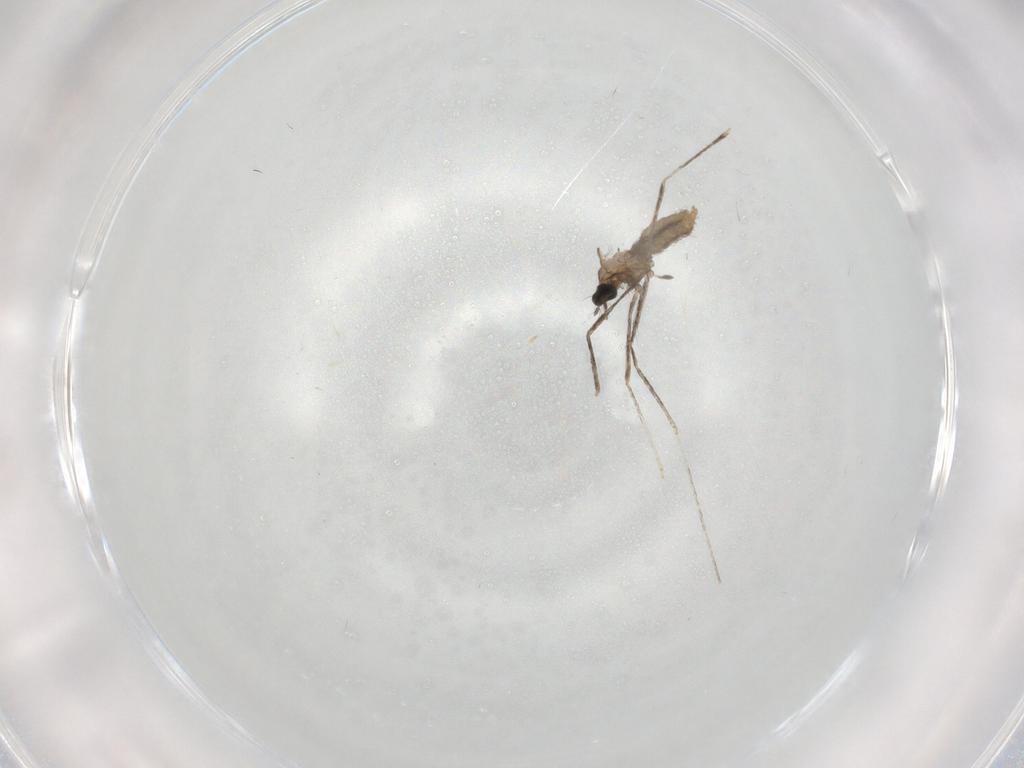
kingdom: Animalia
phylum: Arthropoda
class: Insecta
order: Diptera
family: Cecidomyiidae
